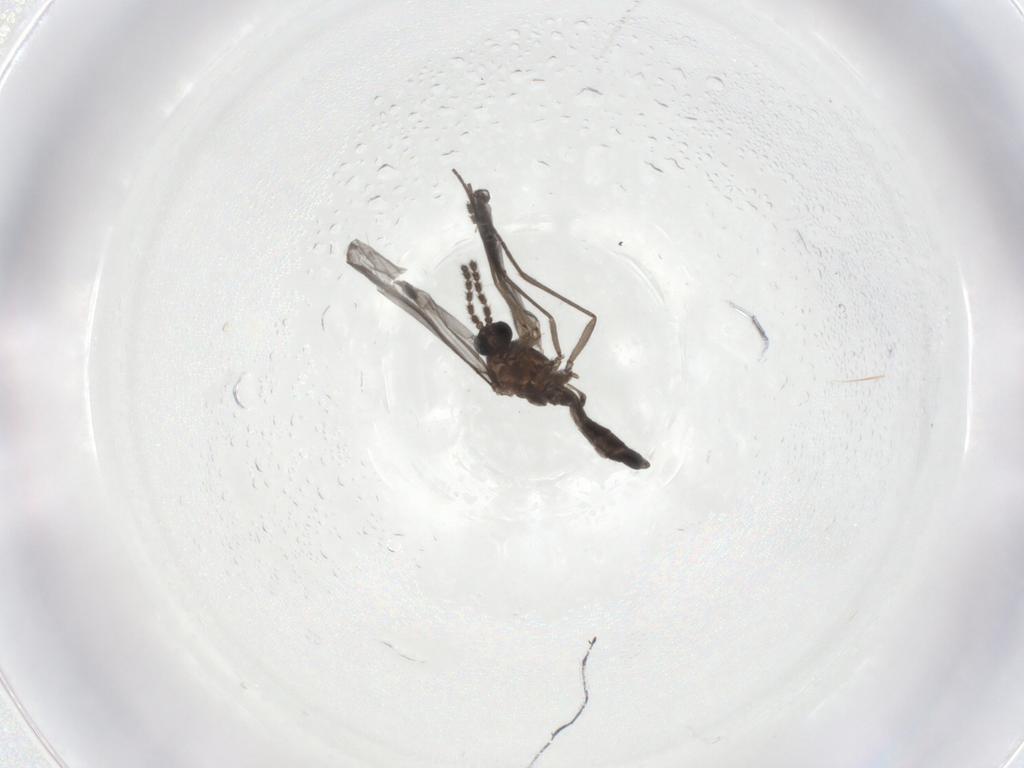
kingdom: Animalia
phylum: Arthropoda
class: Insecta
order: Diptera
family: Sciaridae
